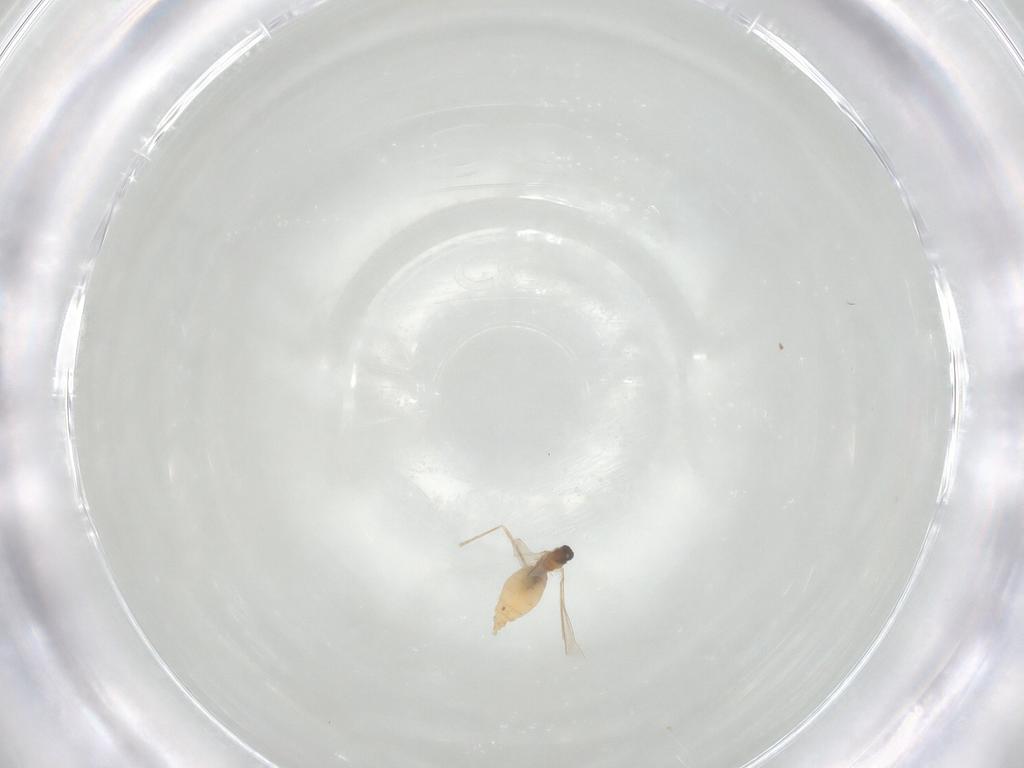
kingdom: Animalia
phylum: Arthropoda
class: Insecta
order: Diptera
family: Cecidomyiidae
